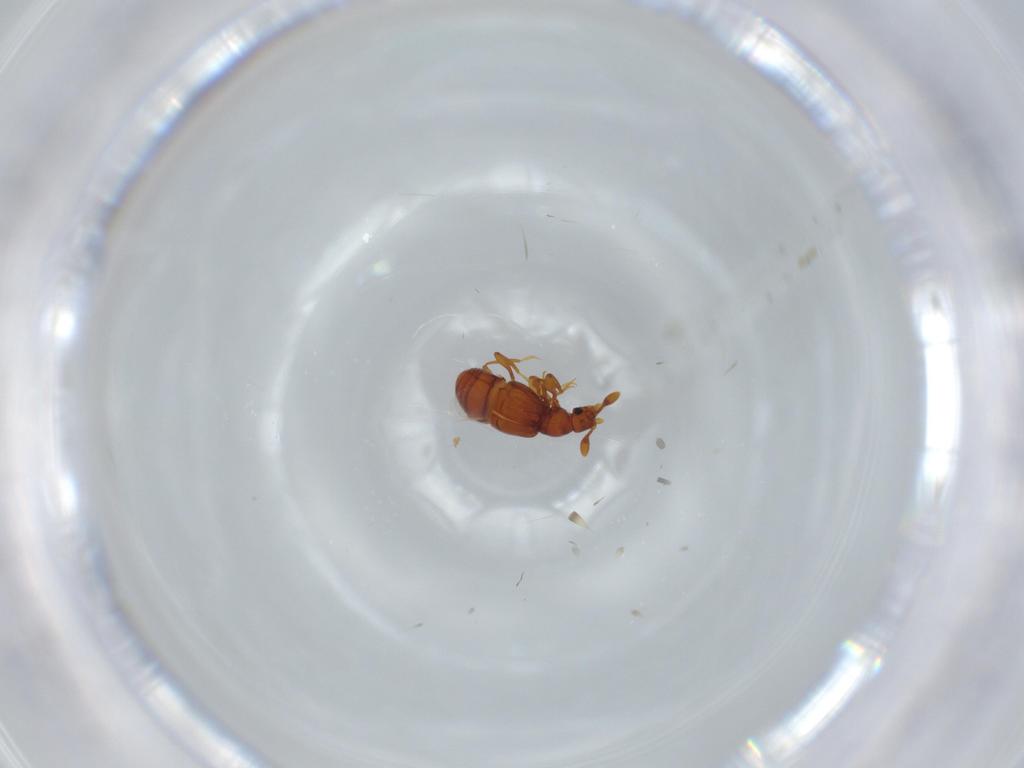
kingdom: Animalia
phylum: Arthropoda
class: Insecta
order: Coleoptera
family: Staphylinidae
